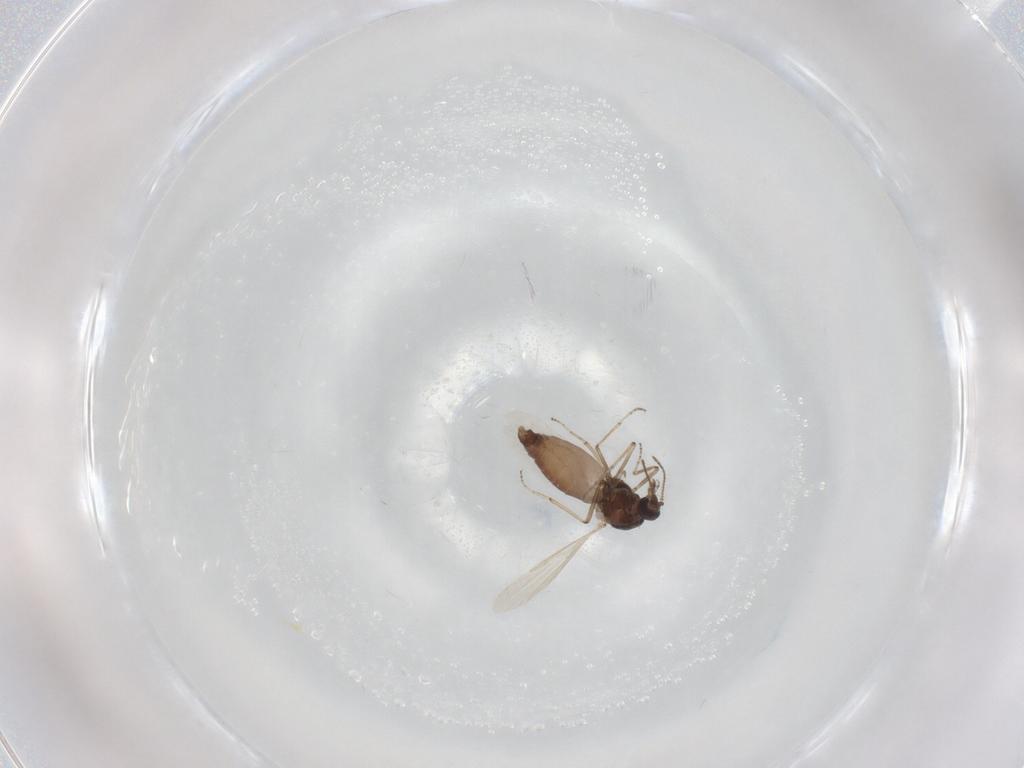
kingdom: Animalia
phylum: Arthropoda
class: Insecta
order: Diptera
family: Ceratopogonidae
